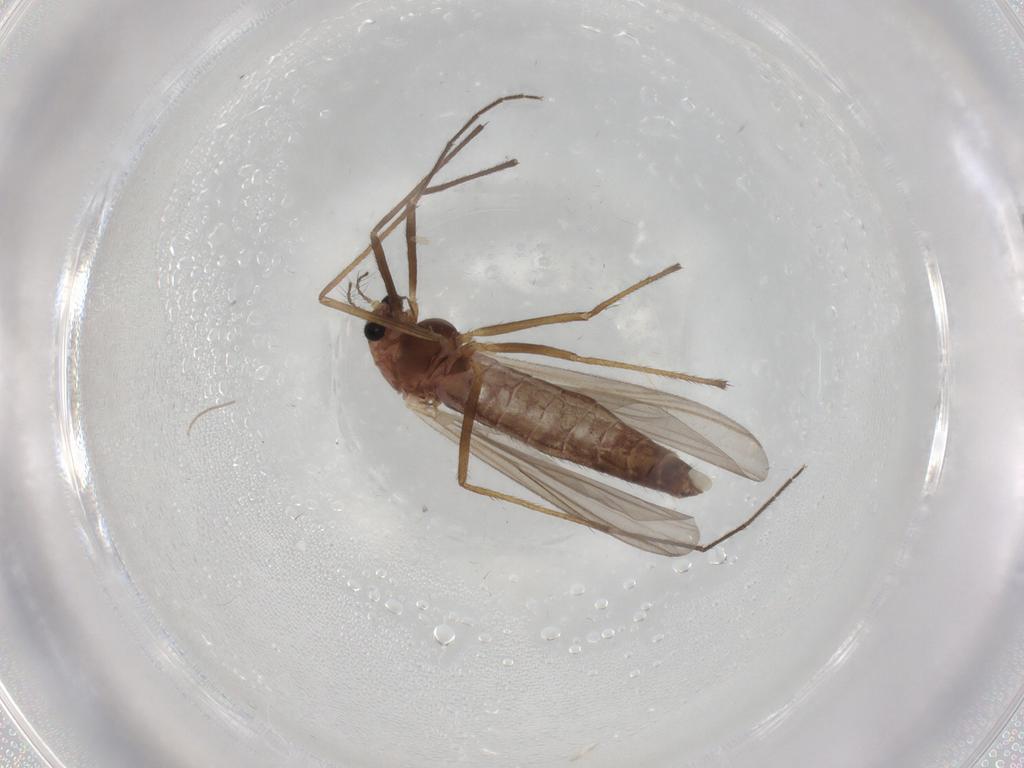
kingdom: Animalia
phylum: Arthropoda
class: Insecta
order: Diptera
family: Chironomidae
